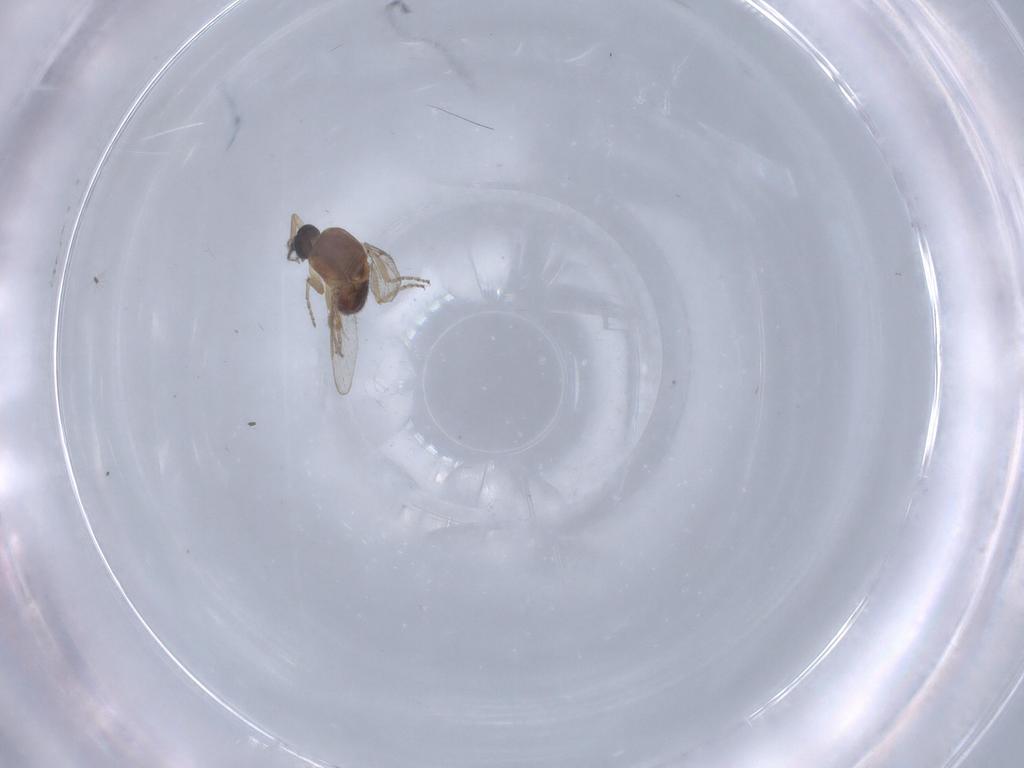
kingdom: Animalia
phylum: Arthropoda
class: Insecta
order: Diptera
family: Ceratopogonidae
